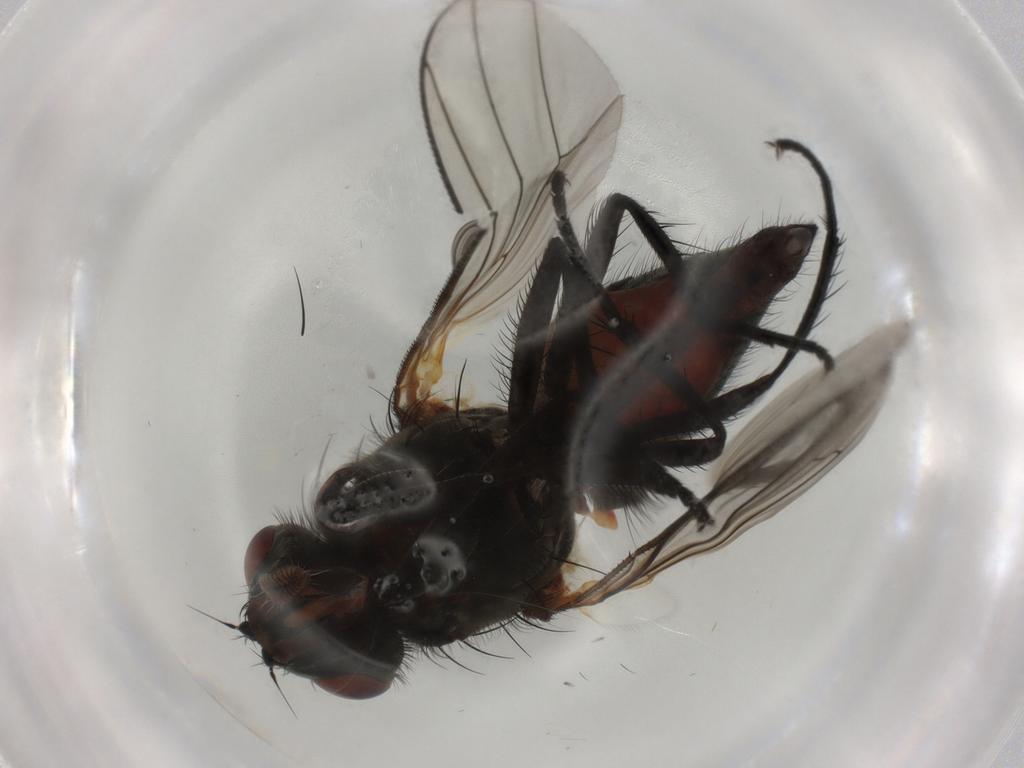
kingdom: Animalia
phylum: Arthropoda
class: Insecta
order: Diptera
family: Anthomyiidae
